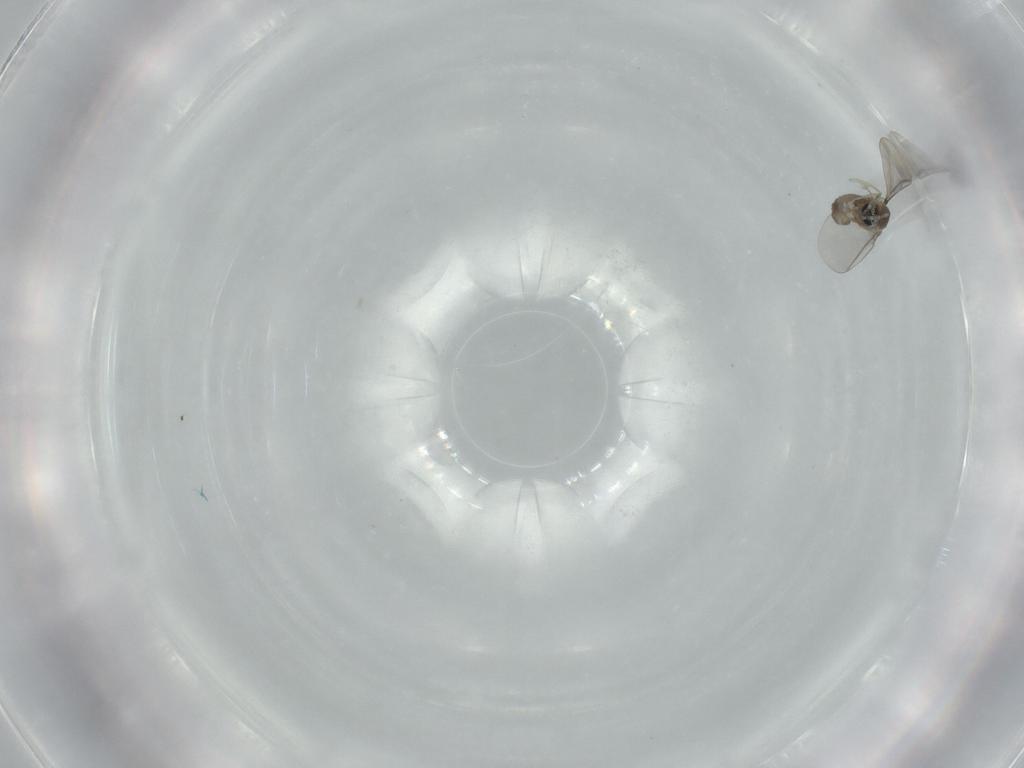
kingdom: Animalia
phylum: Arthropoda
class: Insecta
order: Diptera
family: Cecidomyiidae
